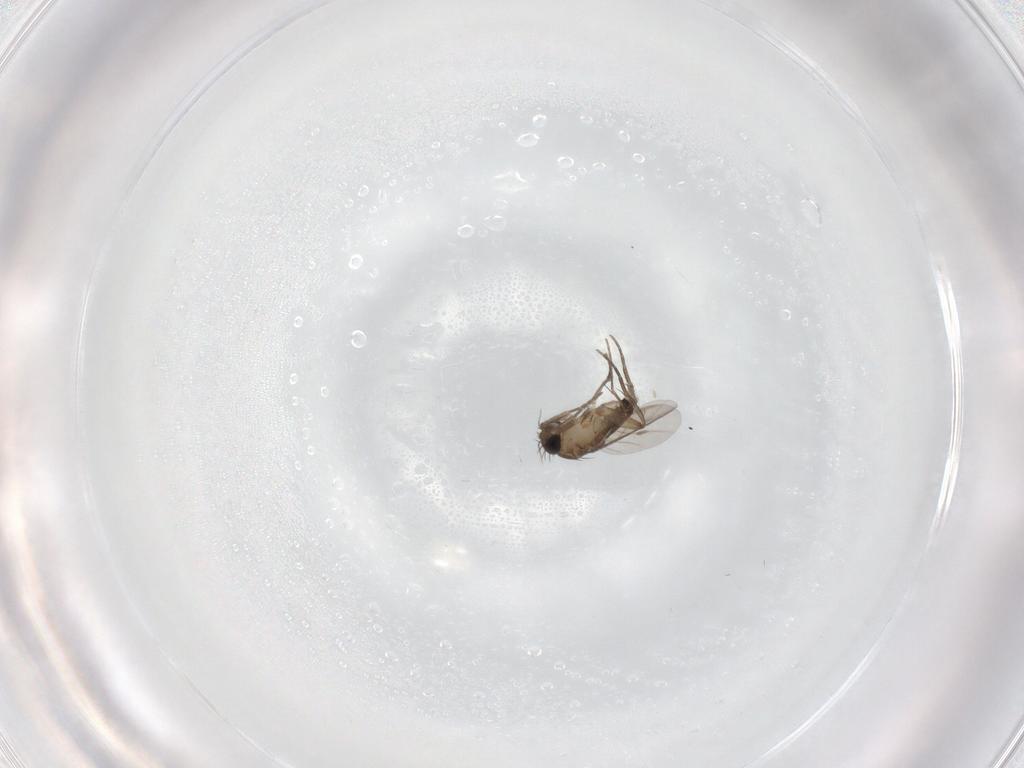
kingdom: Animalia
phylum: Arthropoda
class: Insecta
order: Diptera
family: Phoridae
